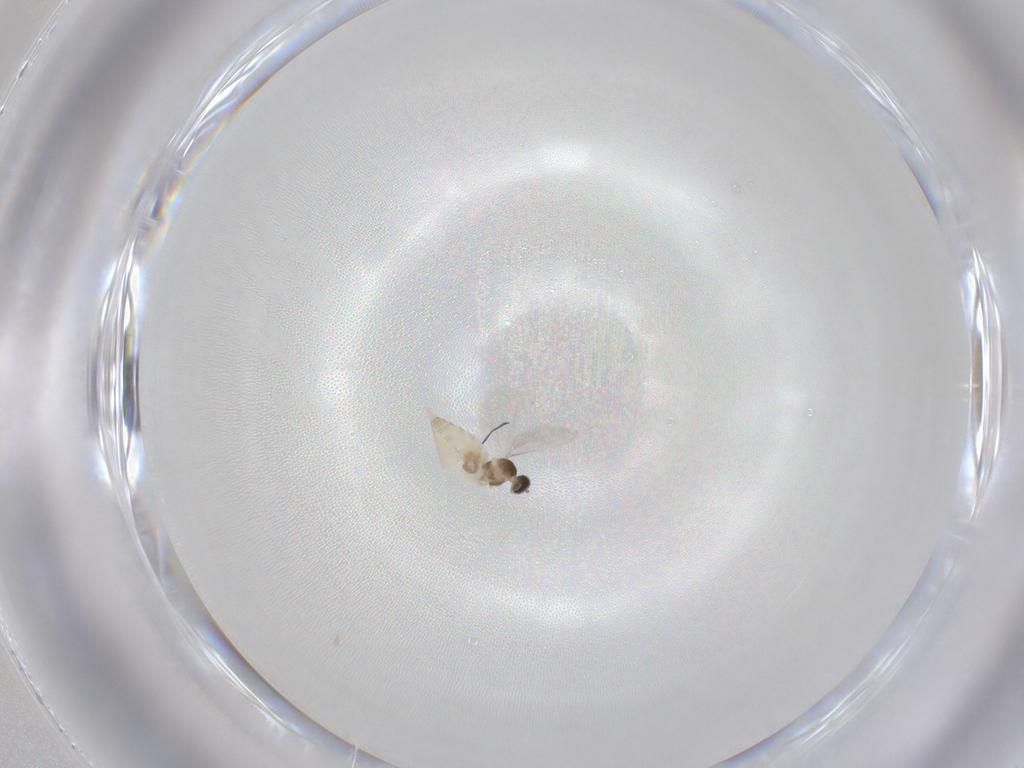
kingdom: Animalia
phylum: Arthropoda
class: Insecta
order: Diptera
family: Cecidomyiidae
